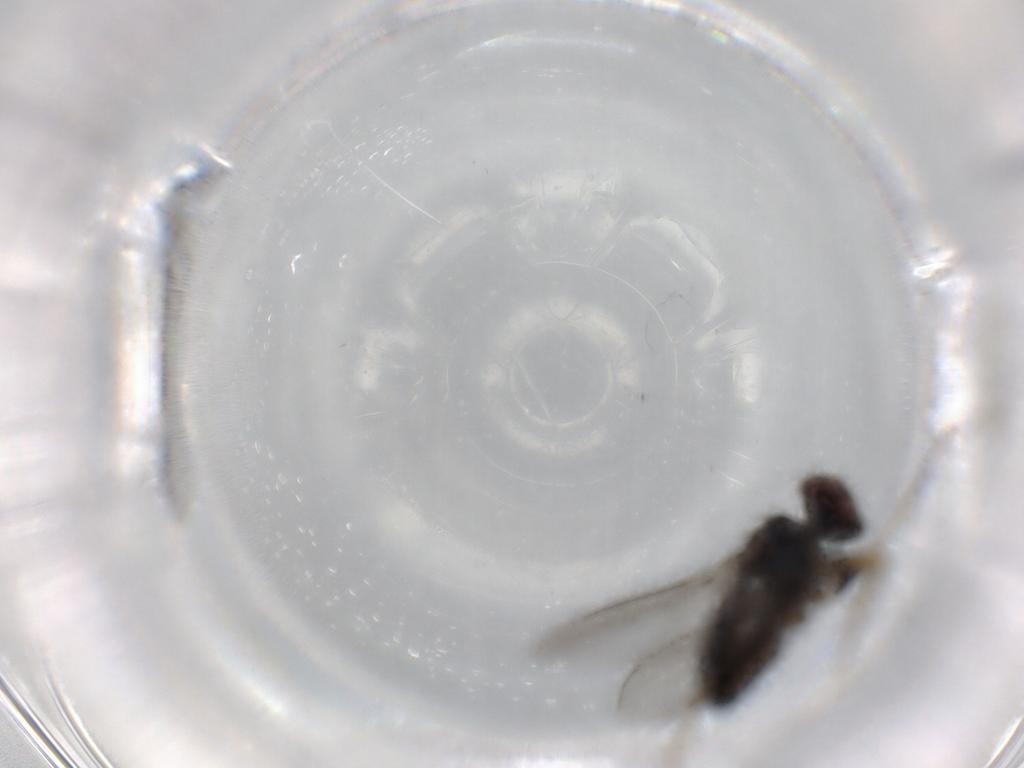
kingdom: Animalia
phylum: Arthropoda
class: Insecta
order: Diptera
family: Dolichopodidae
